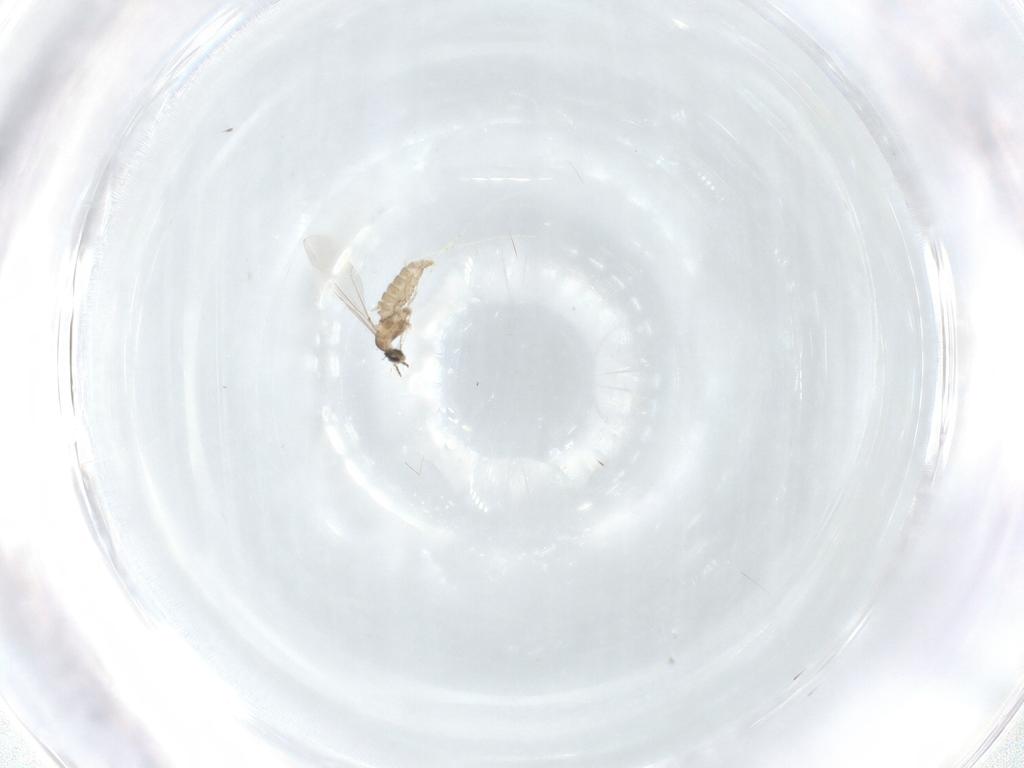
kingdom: Animalia
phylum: Arthropoda
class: Insecta
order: Diptera
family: Cecidomyiidae
